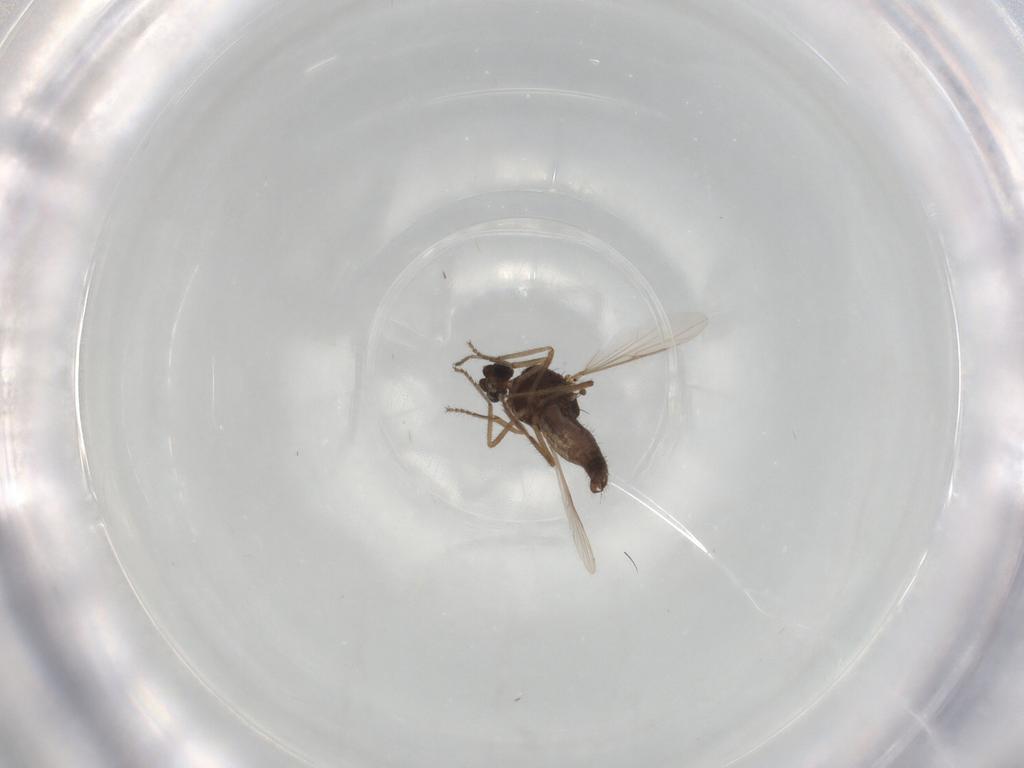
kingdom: Animalia
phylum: Arthropoda
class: Insecta
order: Diptera
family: Ceratopogonidae
